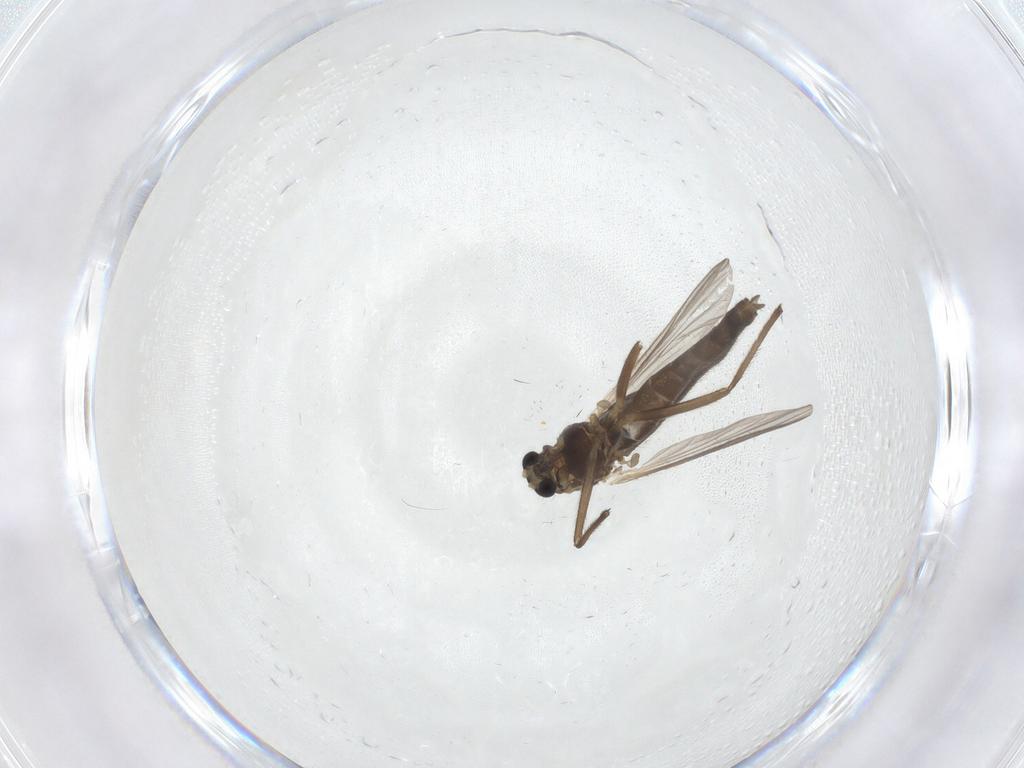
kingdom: Animalia
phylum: Arthropoda
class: Insecta
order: Diptera
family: Chironomidae
